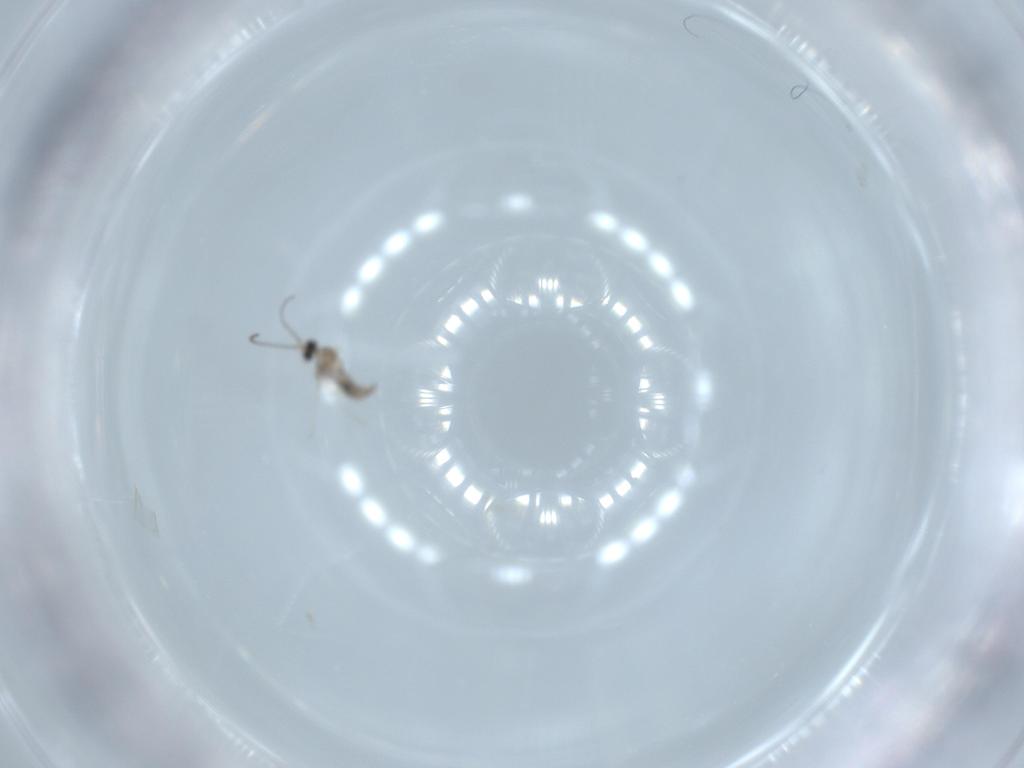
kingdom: Animalia
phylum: Arthropoda
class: Insecta
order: Diptera
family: Cecidomyiidae
